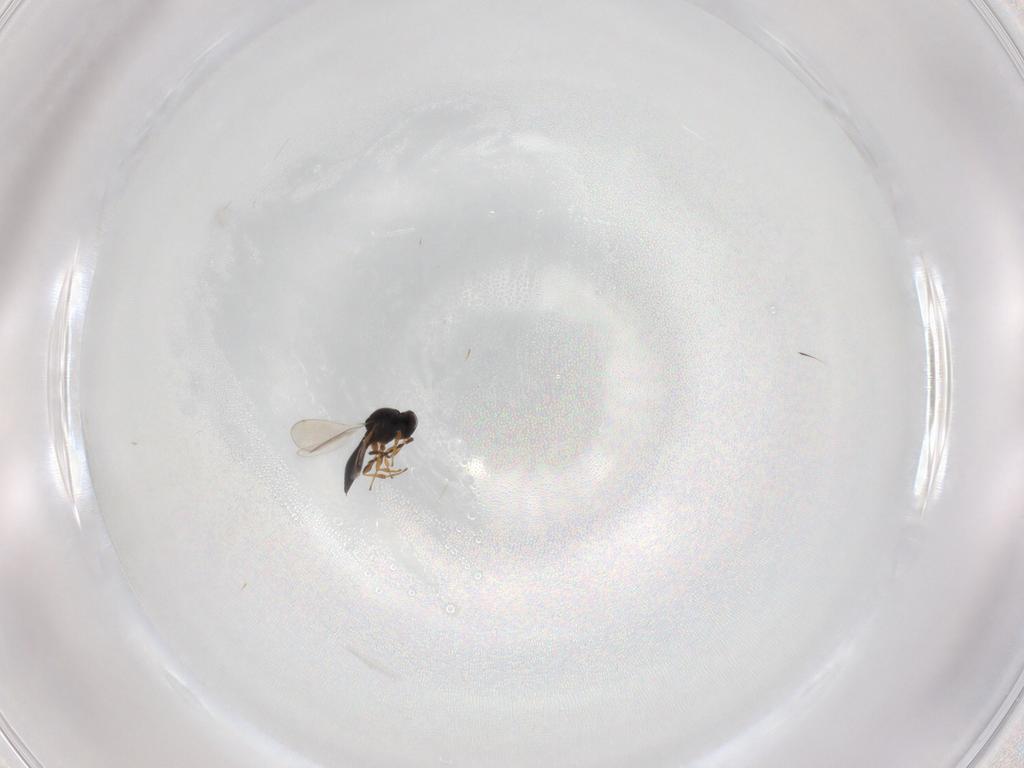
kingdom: Animalia
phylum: Arthropoda
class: Insecta
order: Hymenoptera
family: Platygastridae
